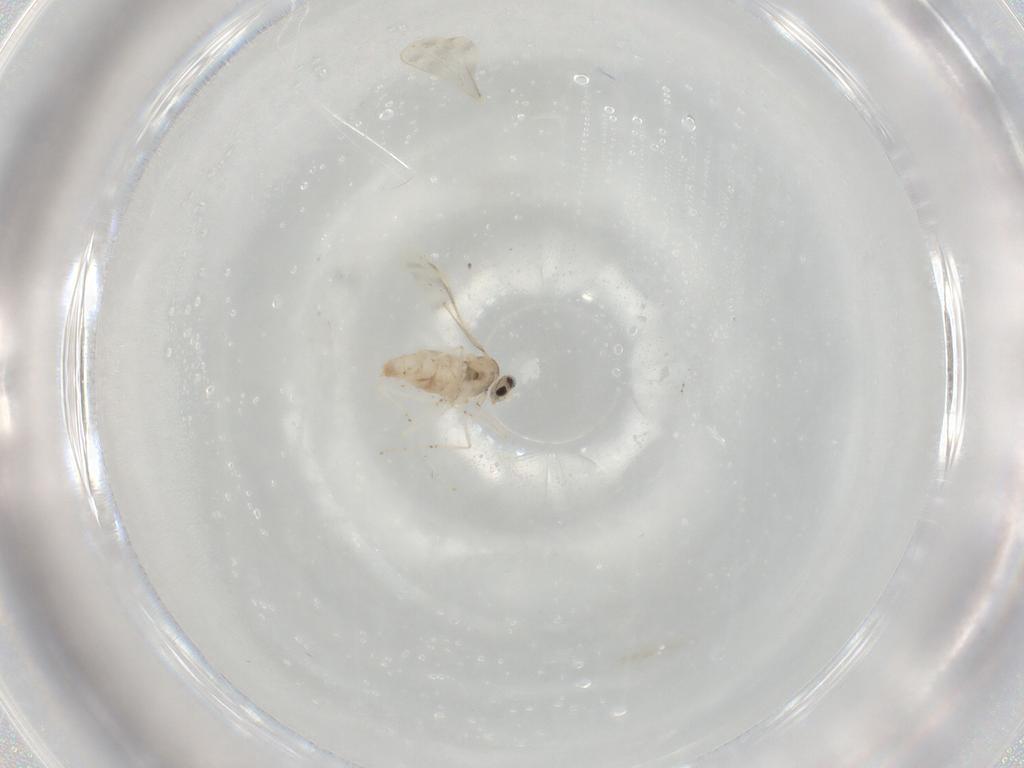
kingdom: Animalia
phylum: Arthropoda
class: Insecta
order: Diptera
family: Cecidomyiidae
